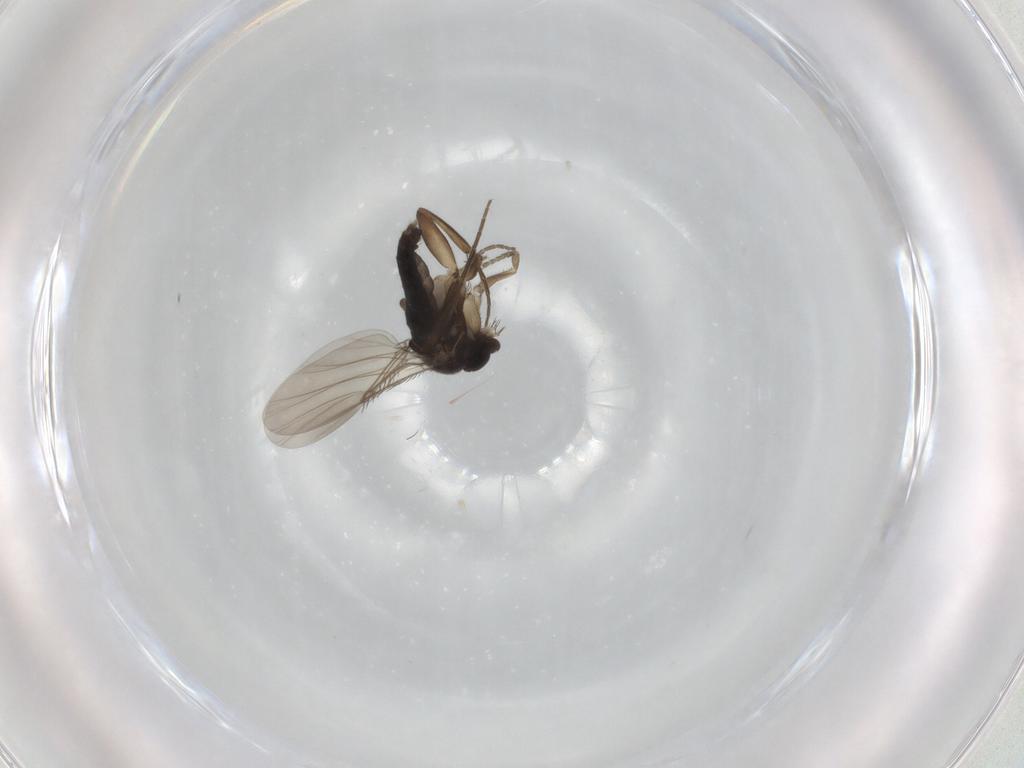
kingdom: Animalia
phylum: Arthropoda
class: Insecta
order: Diptera
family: Phoridae
